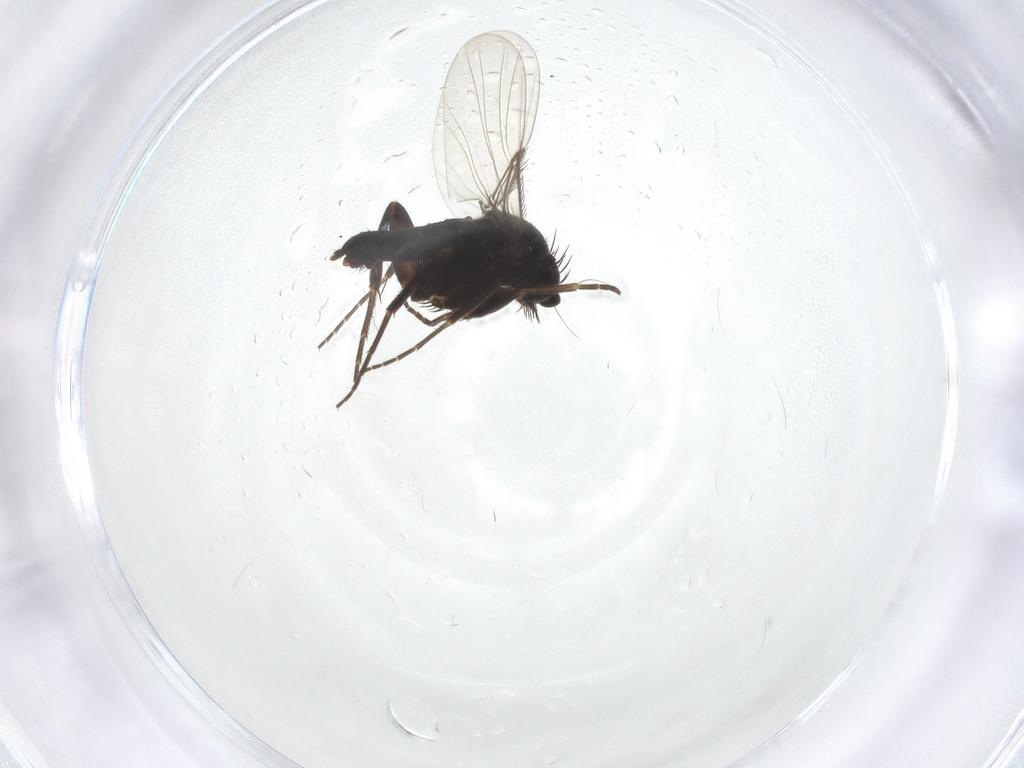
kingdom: Animalia
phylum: Arthropoda
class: Insecta
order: Diptera
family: Phoridae
